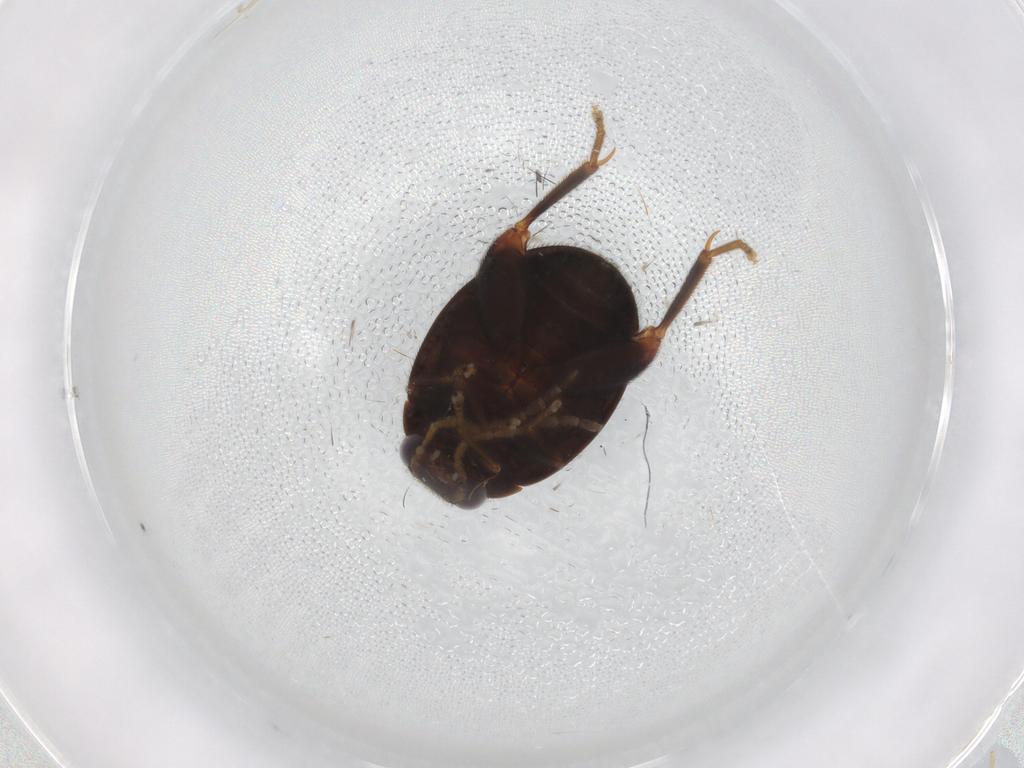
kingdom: Animalia
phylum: Arthropoda
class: Insecta
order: Coleoptera
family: Scirtidae
